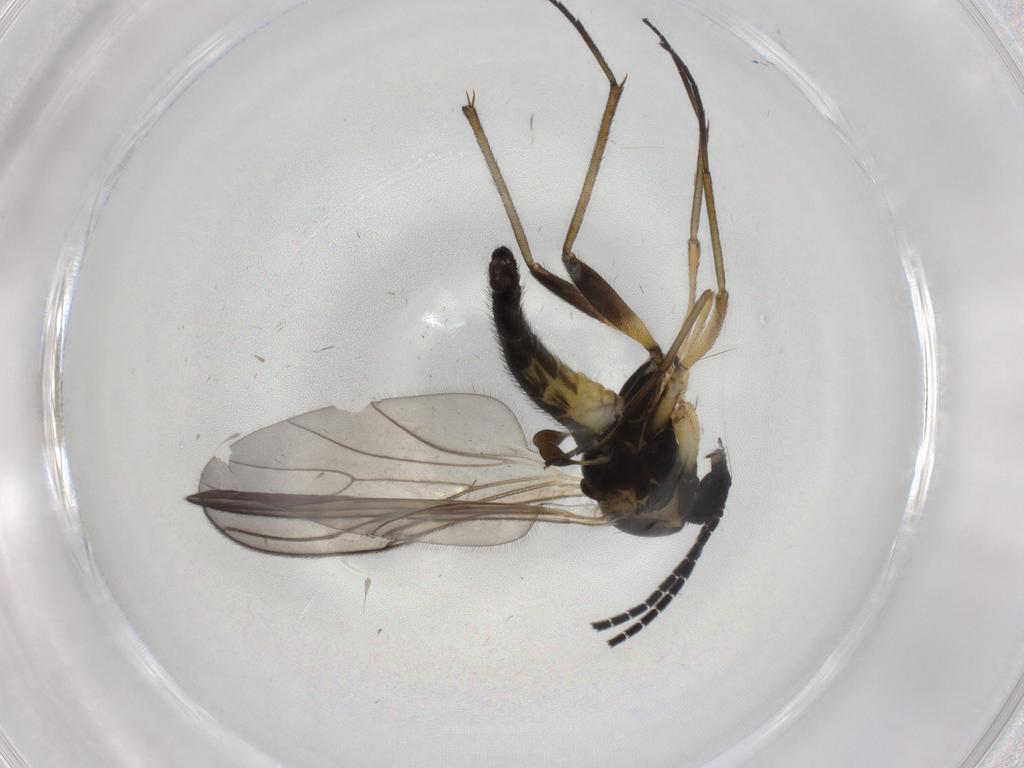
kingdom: Animalia
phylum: Arthropoda
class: Insecta
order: Diptera
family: Sciaridae
